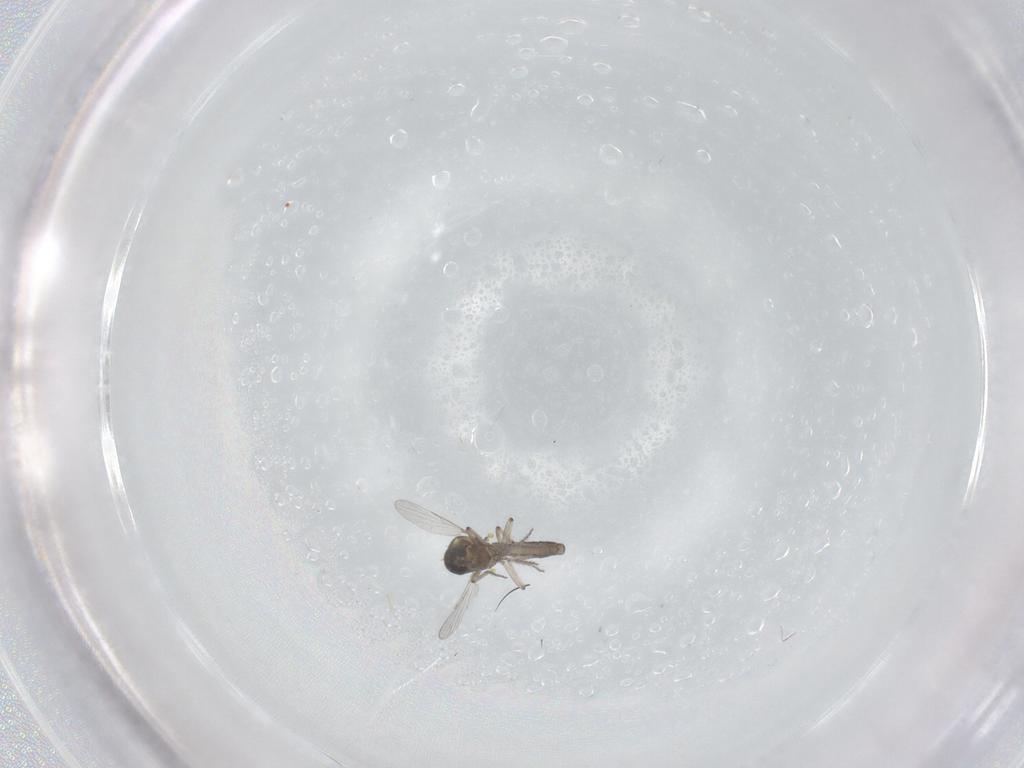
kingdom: Animalia
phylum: Arthropoda
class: Insecta
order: Diptera
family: Ceratopogonidae
